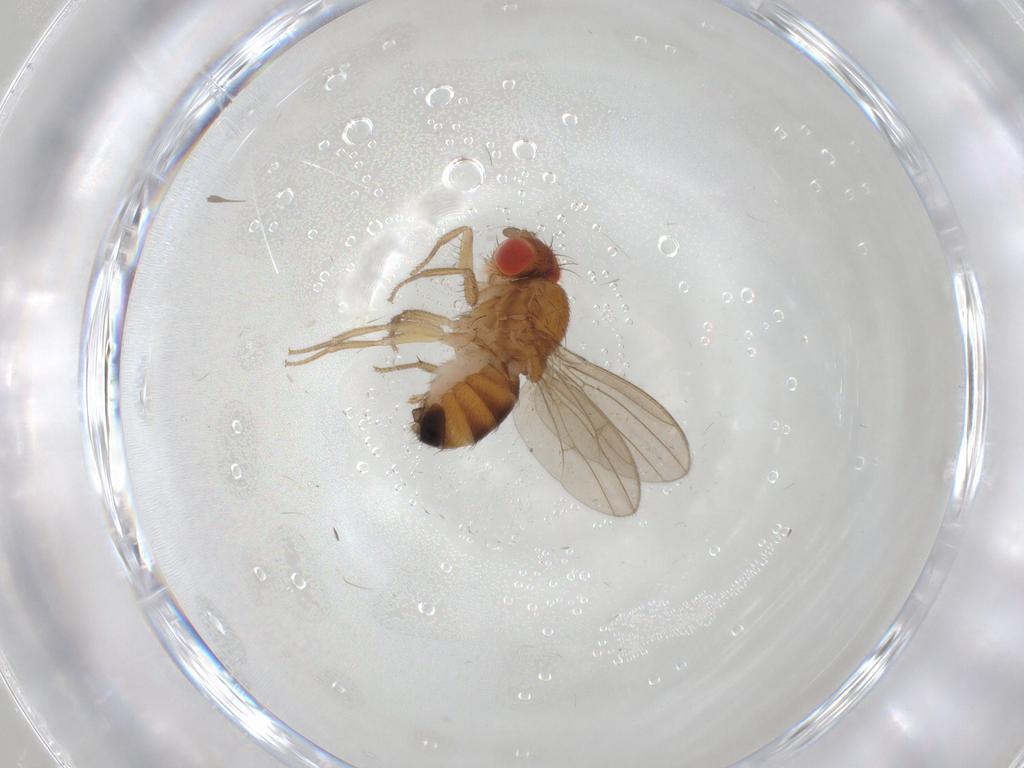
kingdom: Animalia
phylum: Arthropoda
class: Insecta
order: Diptera
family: Drosophilidae
